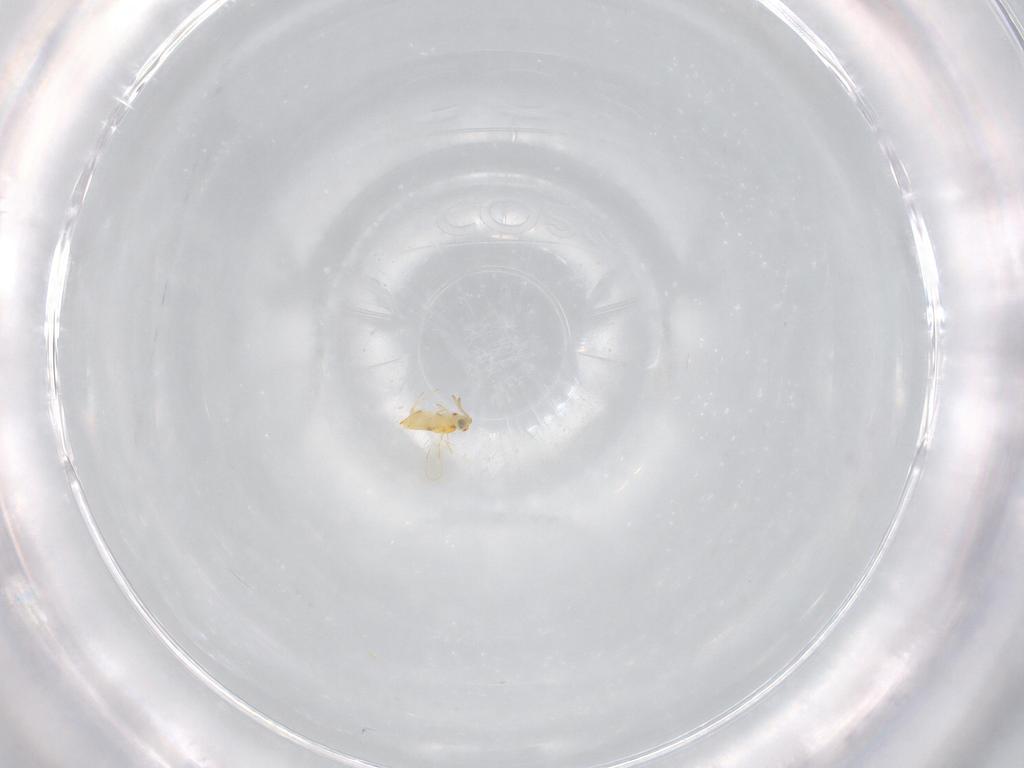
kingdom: Animalia
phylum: Arthropoda
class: Insecta
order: Hymenoptera
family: Aphelinidae
